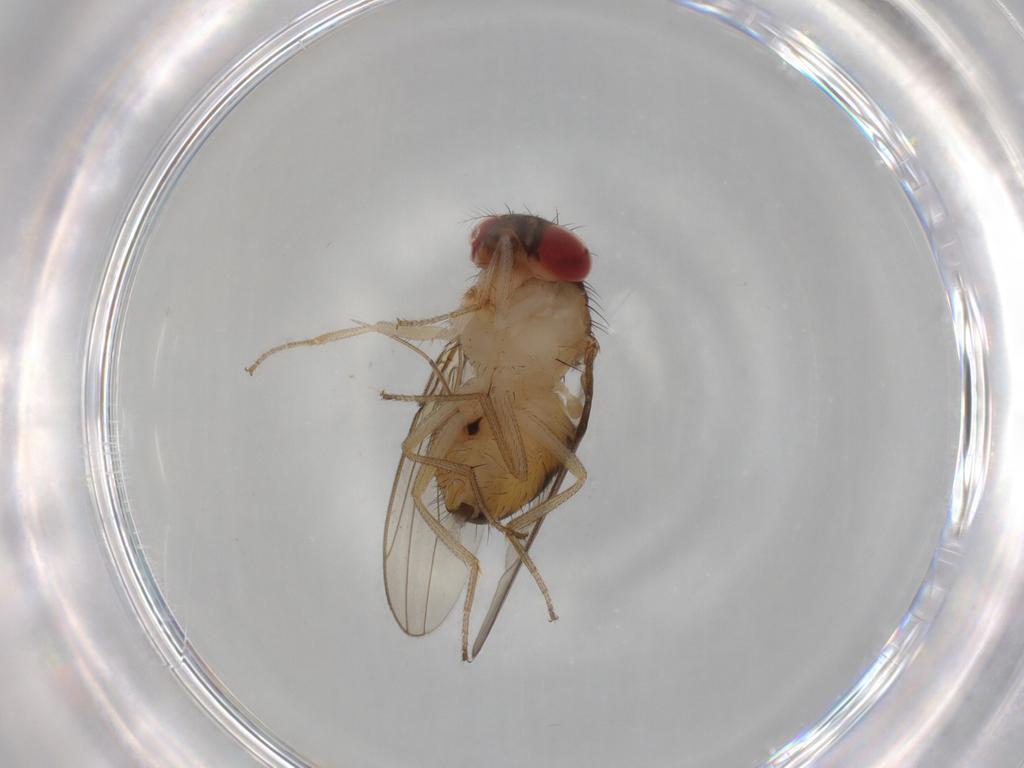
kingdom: Animalia
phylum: Arthropoda
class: Insecta
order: Diptera
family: Drosophilidae
